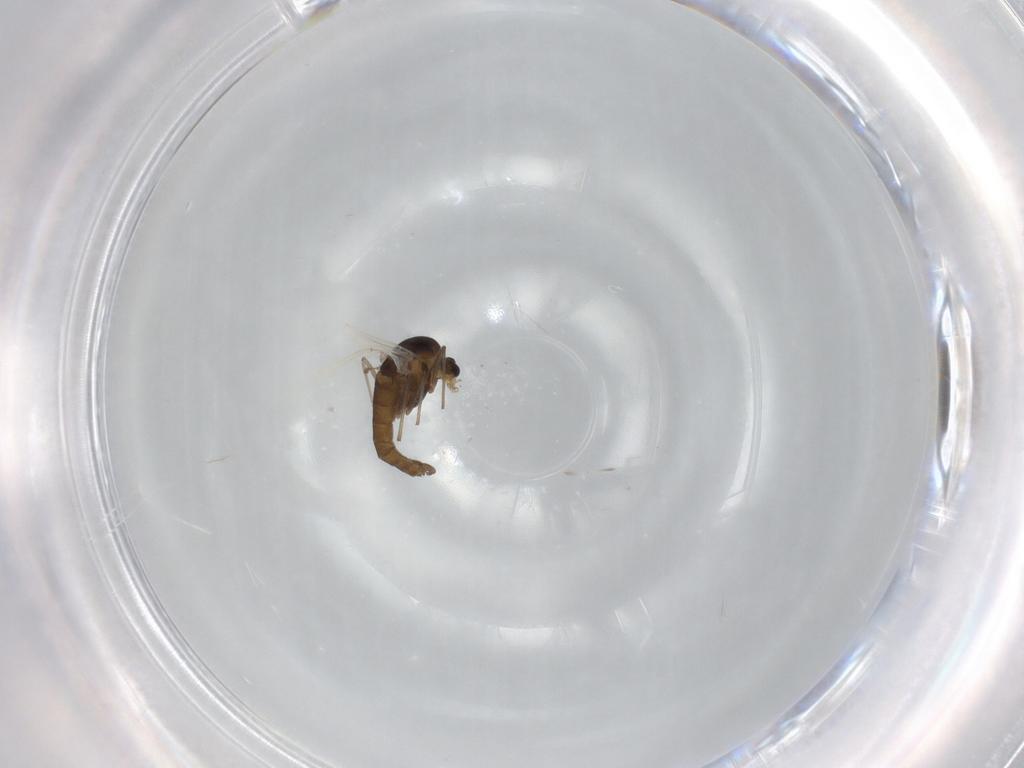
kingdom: Animalia
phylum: Arthropoda
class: Insecta
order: Diptera
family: Chironomidae
